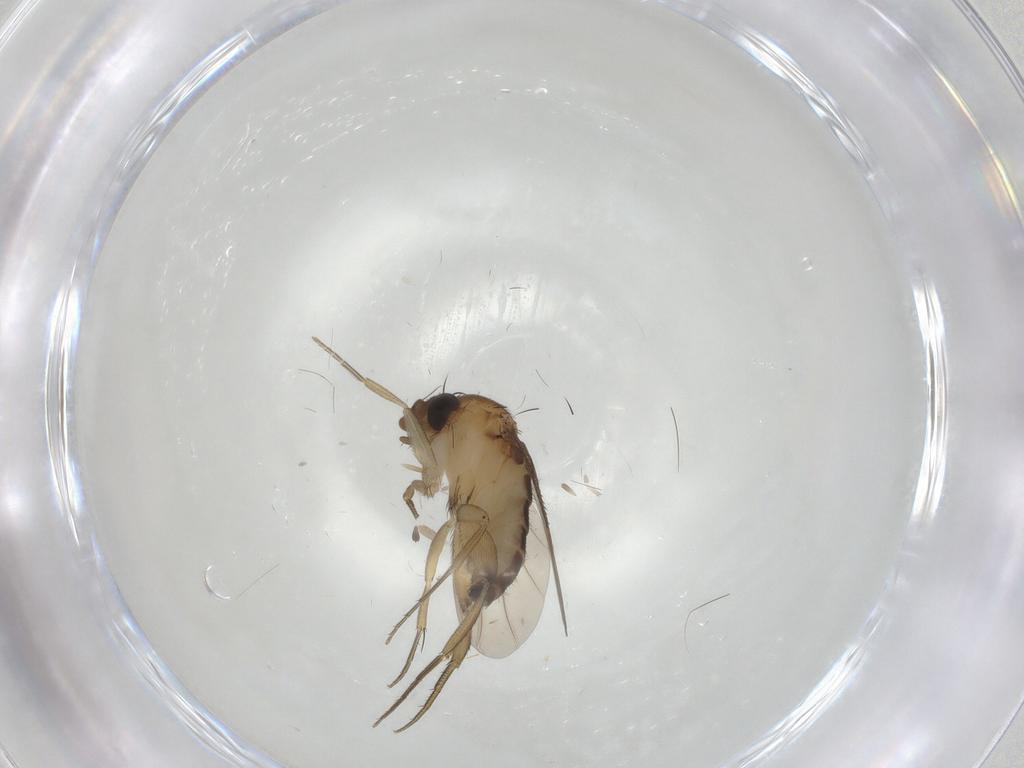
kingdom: Animalia
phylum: Arthropoda
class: Insecta
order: Diptera
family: Phoridae
